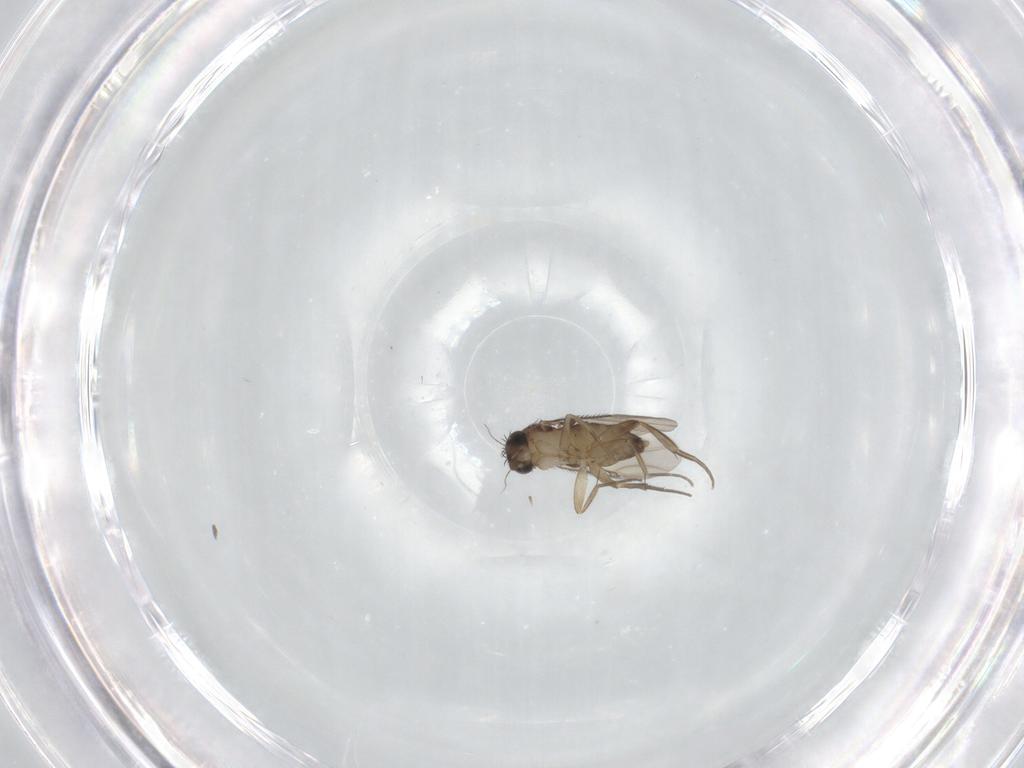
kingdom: Animalia
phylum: Arthropoda
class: Insecta
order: Diptera
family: Phoridae
